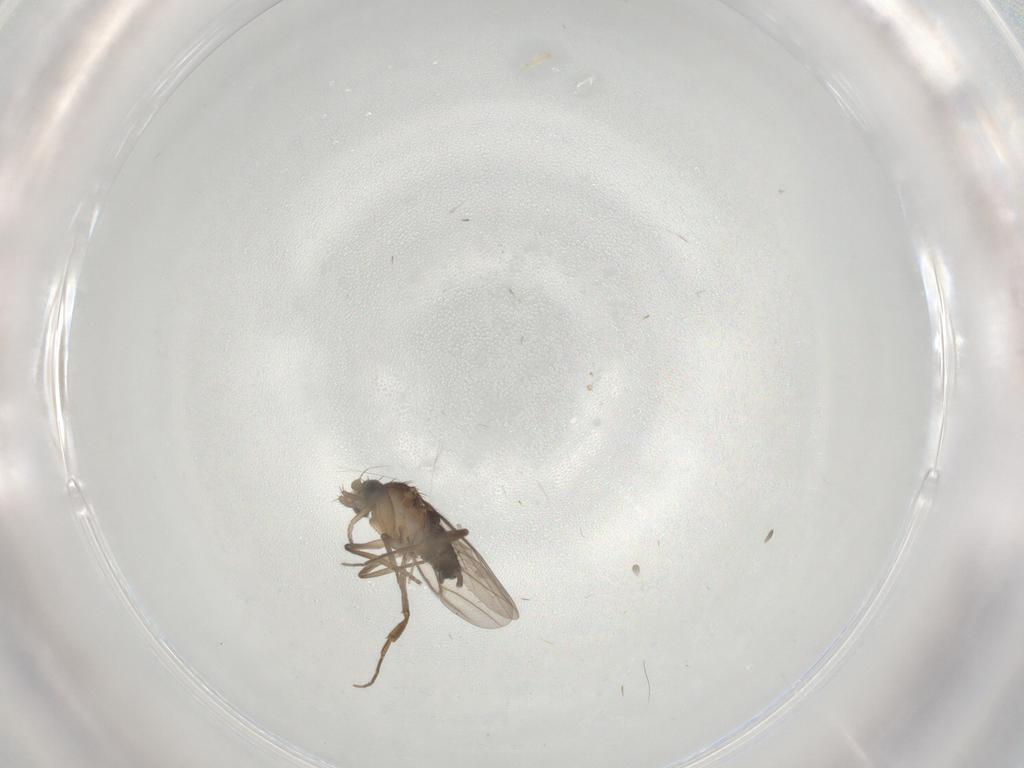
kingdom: Animalia
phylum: Arthropoda
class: Insecta
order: Diptera
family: Phoridae
